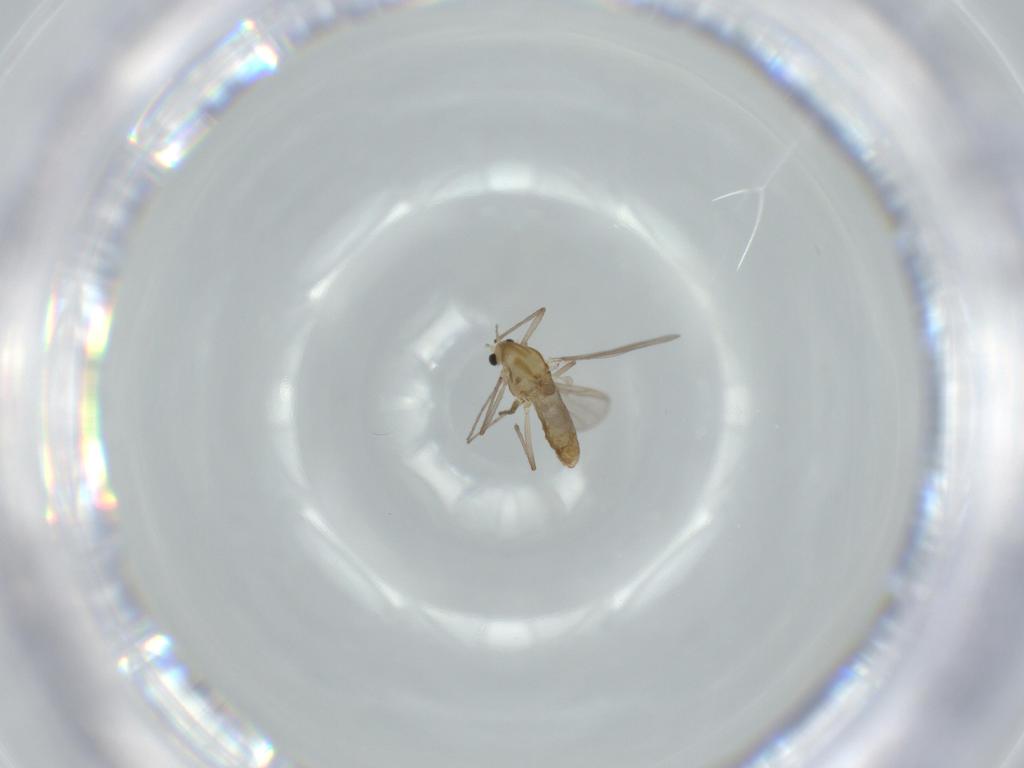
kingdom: Animalia
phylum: Arthropoda
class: Insecta
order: Diptera
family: Chironomidae
